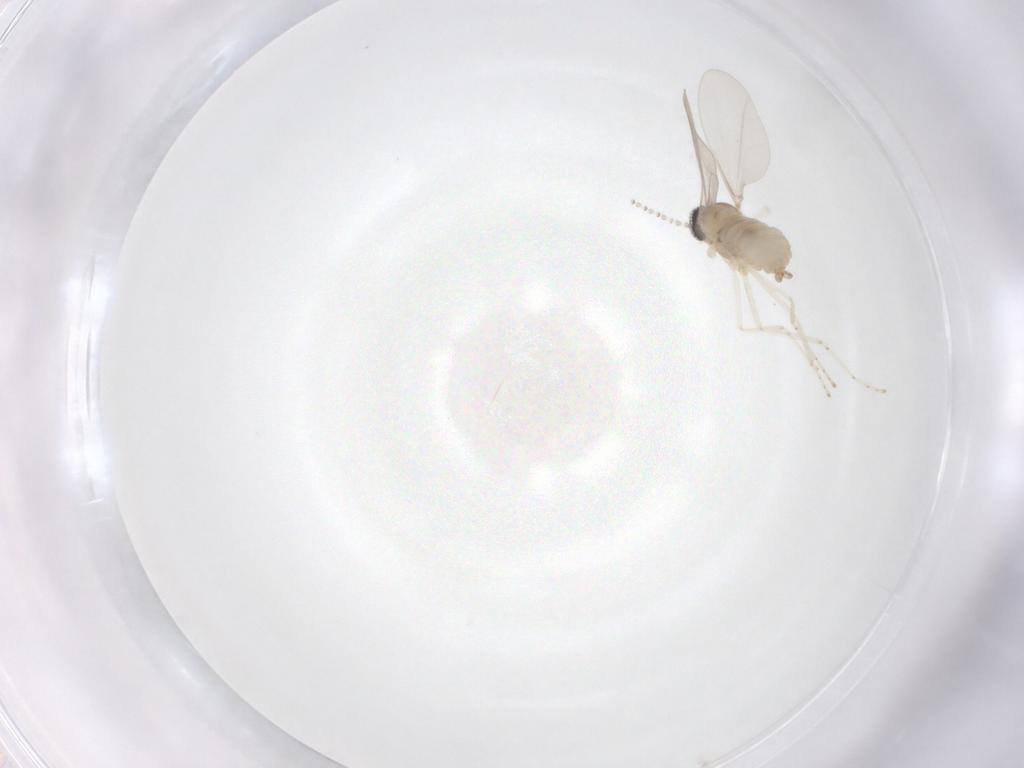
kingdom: Animalia
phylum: Arthropoda
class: Insecta
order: Diptera
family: Cecidomyiidae
